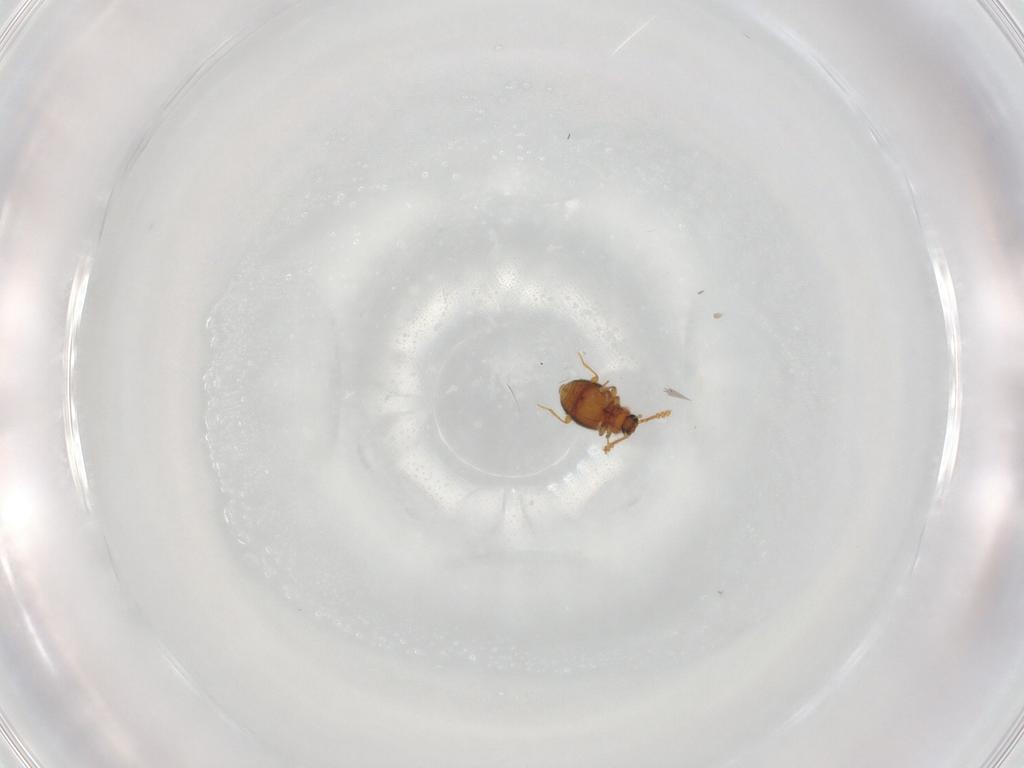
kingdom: Animalia
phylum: Arthropoda
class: Insecta
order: Coleoptera
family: Staphylinidae
